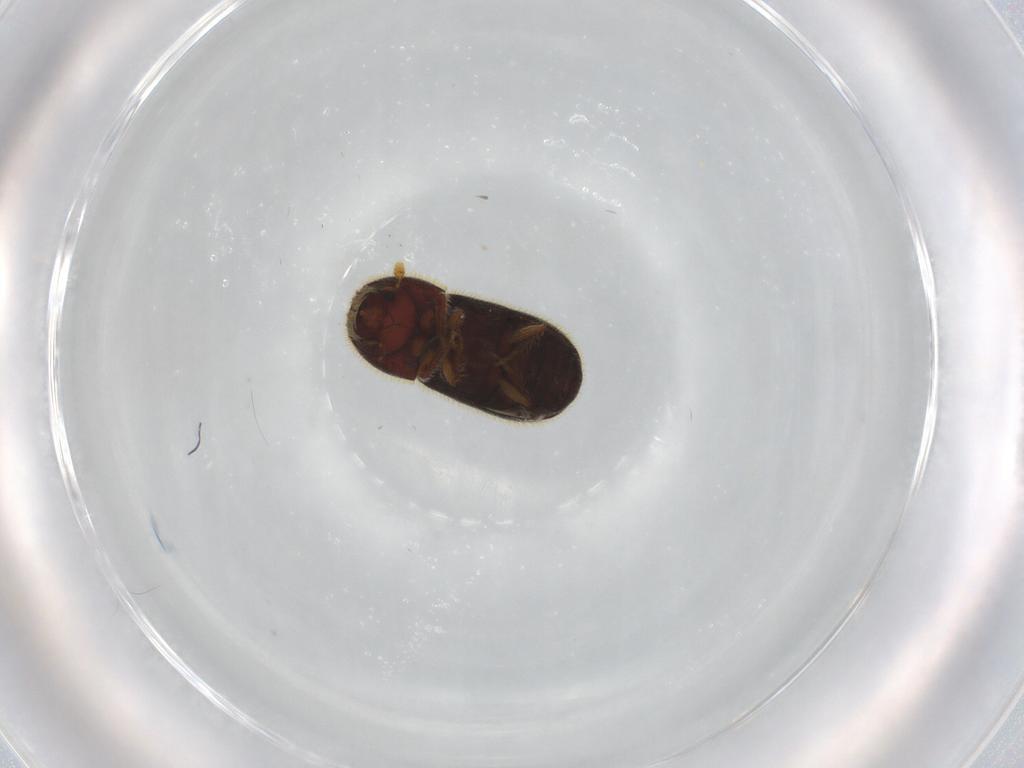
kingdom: Animalia
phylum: Arthropoda
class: Insecta
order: Coleoptera
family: Curculionidae
